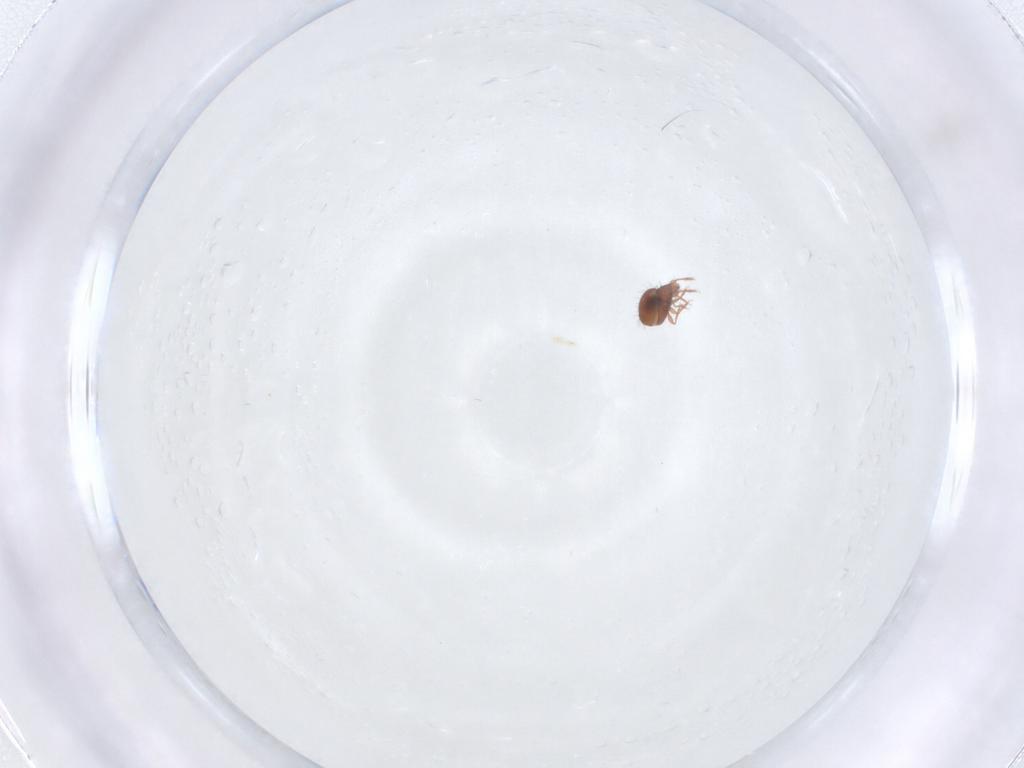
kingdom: Animalia
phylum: Arthropoda
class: Arachnida
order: Sarcoptiformes
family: Oribatulidae
